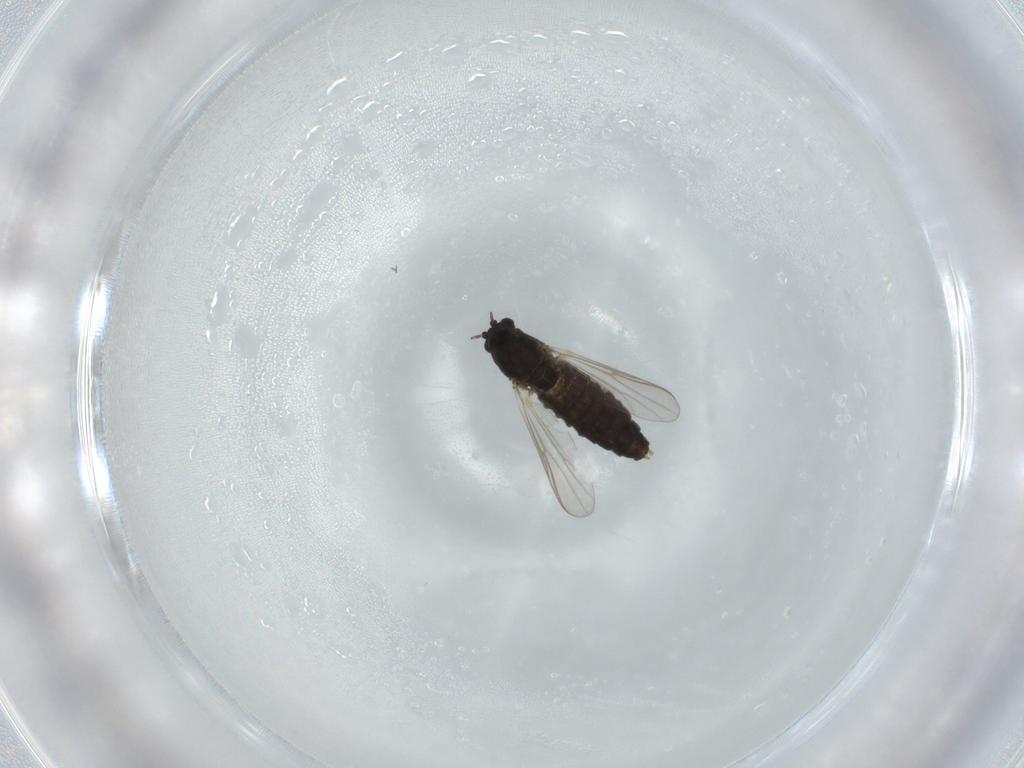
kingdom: Animalia
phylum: Arthropoda
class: Insecta
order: Diptera
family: Chironomidae
